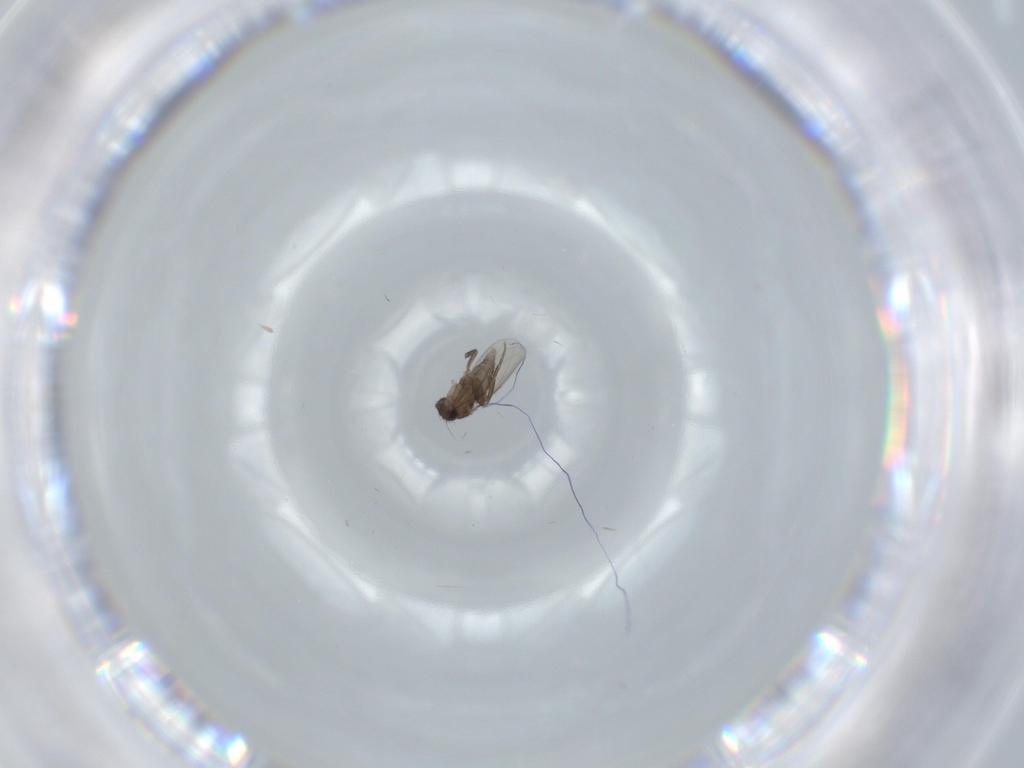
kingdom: Animalia
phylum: Arthropoda
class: Insecta
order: Diptera
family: Phoridae
